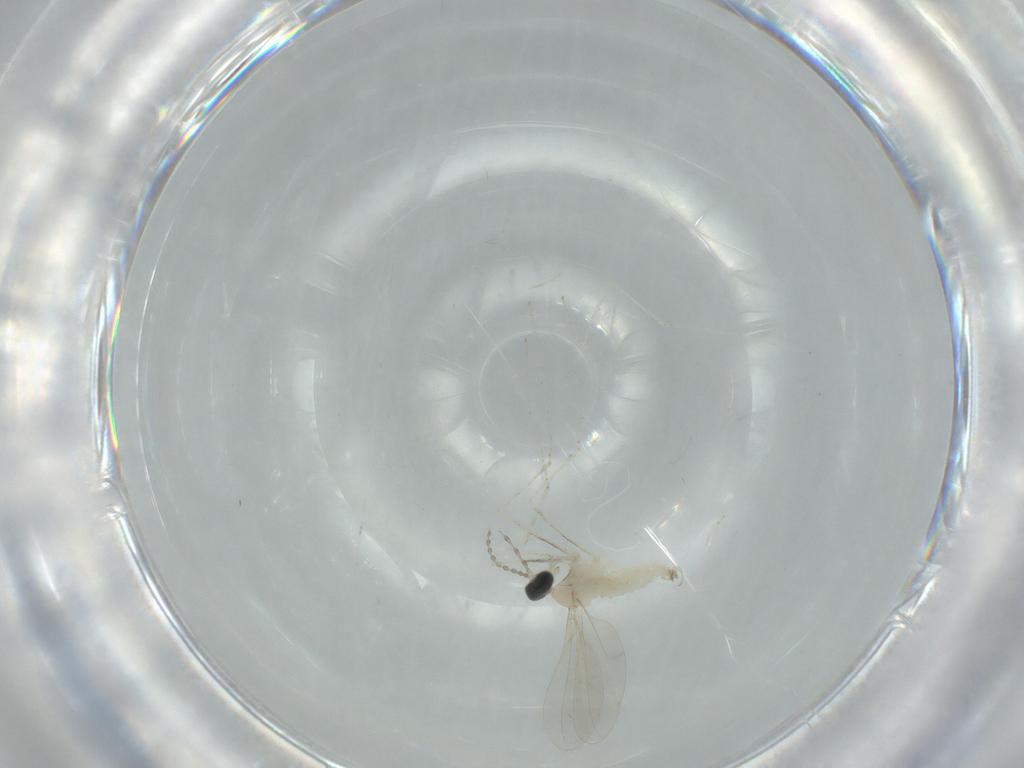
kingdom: Animalia
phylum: Arthropoda
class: Insecta
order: Diptera
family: Cecidomyiidae
